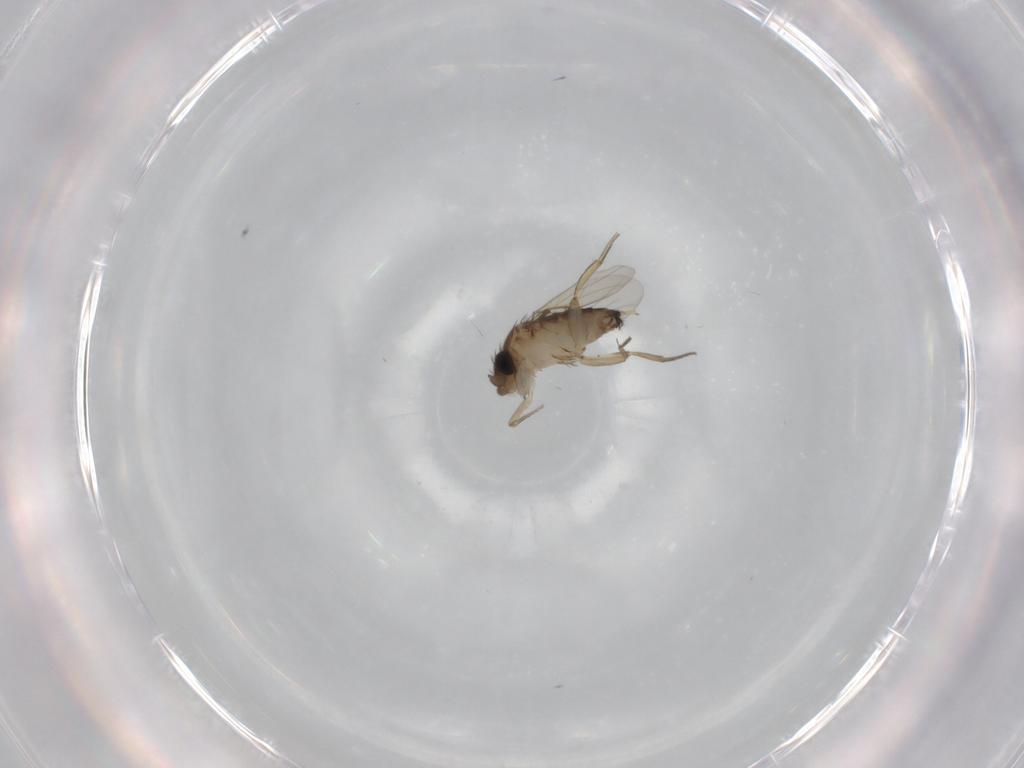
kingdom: Animalia
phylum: Arthropoda
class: Insecta
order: Diptera
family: Phoridae
